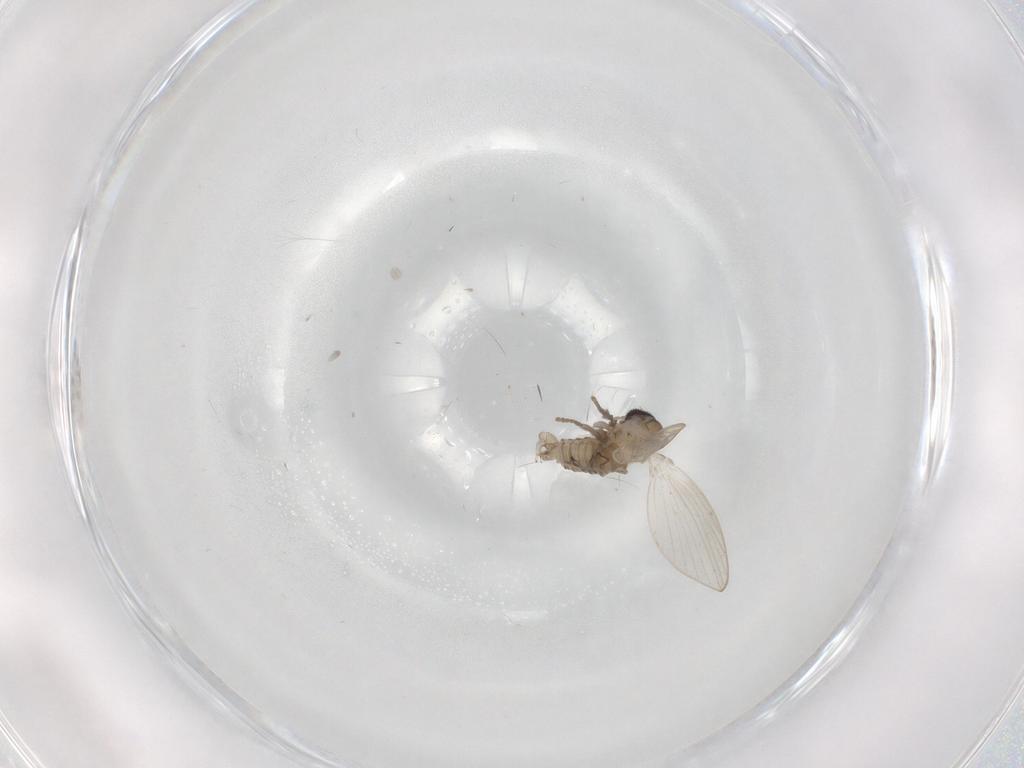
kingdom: Animalia
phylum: Arthropoda
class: Insecta
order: Diptera
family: Psychodidae
